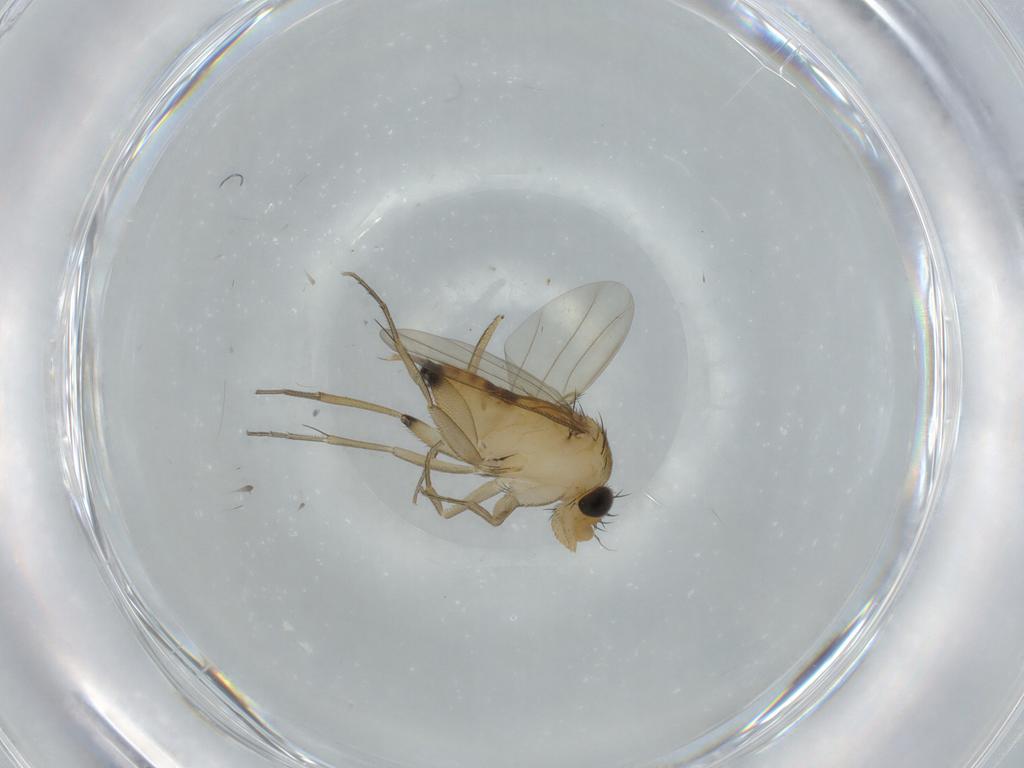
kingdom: Animalia
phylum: Arthropoda
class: Insecta
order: Diptera
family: Phoridae
